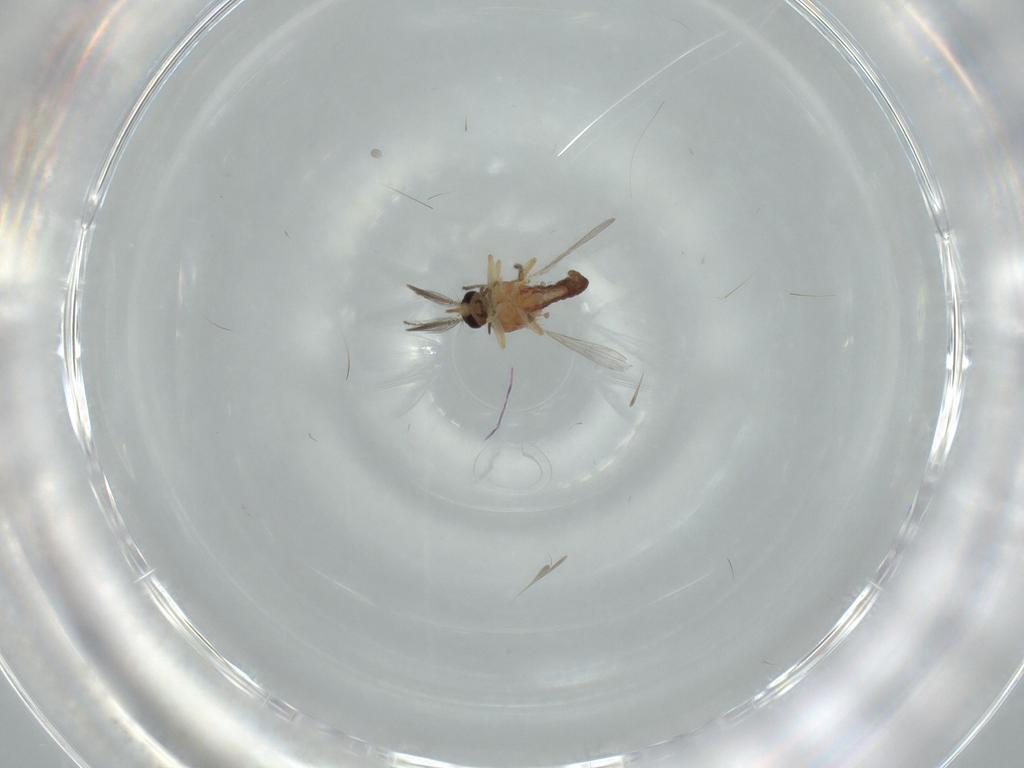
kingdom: Animalia
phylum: Arthropoda
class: Insecta
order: Diptera
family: Ceratopogonidae
